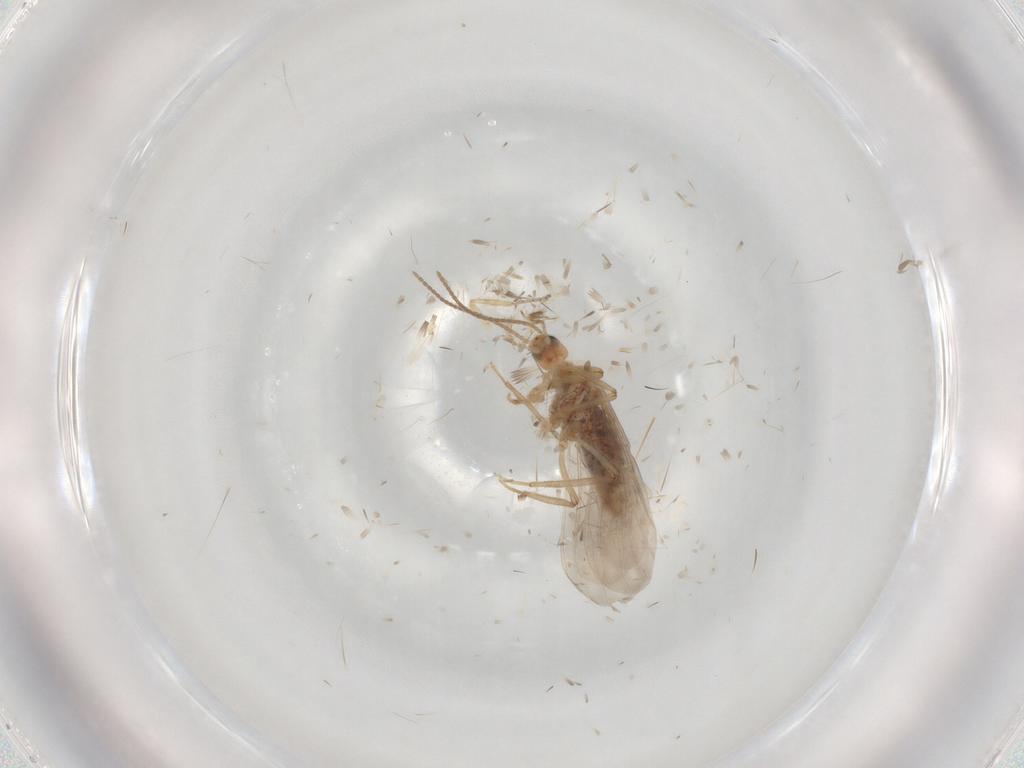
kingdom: Animalia
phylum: Arthropoda
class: Insecta
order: Neuroptera
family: Coniopterygidae
